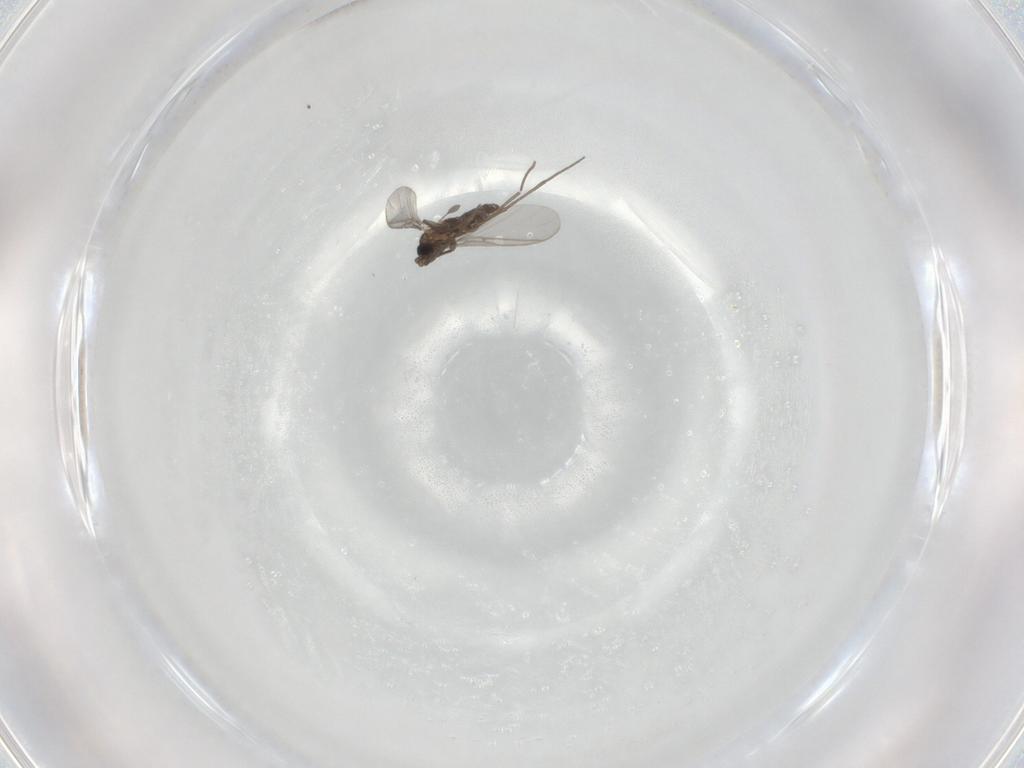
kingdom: Animalia
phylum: Arthropoda
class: Insecta
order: Diptera
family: Sciaridae
